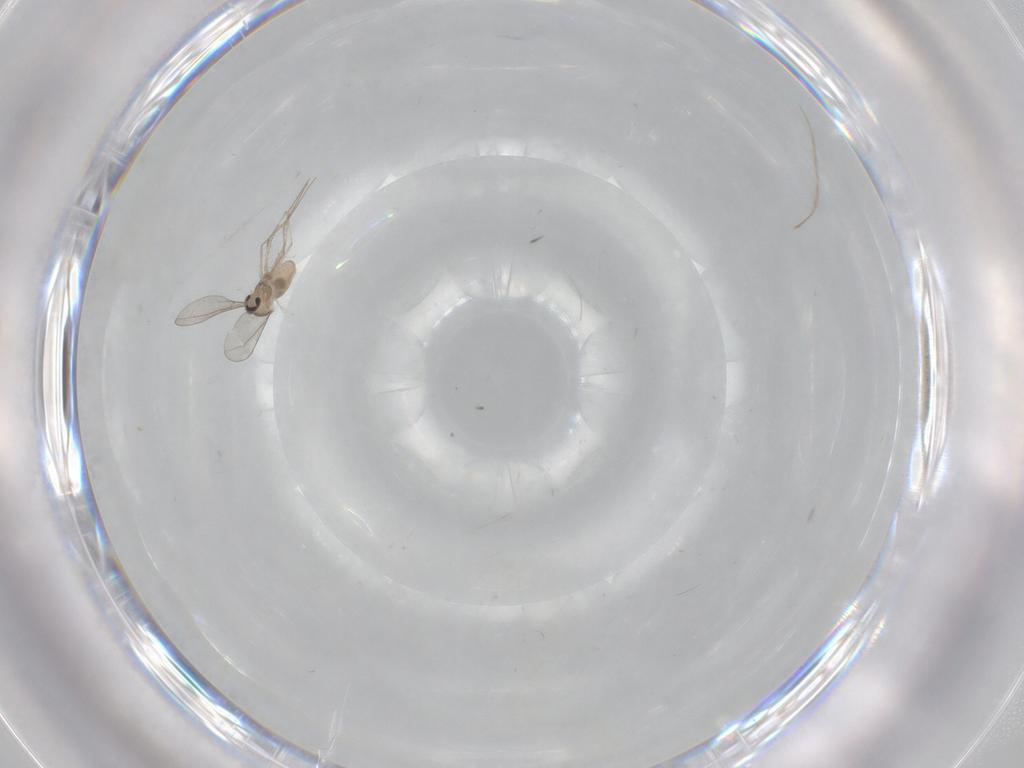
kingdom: Animalia
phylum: Arthropoda
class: Insecta
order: Diptera
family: Cecidomyiidae
